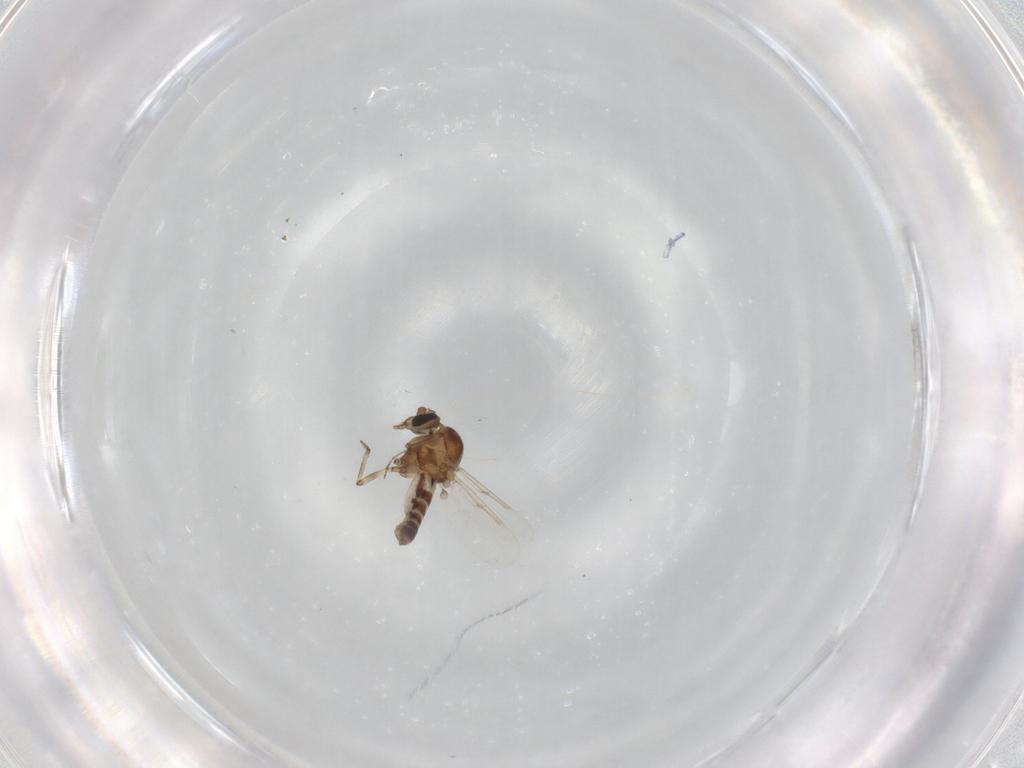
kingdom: Animalia
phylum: Arthropoda
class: Insecta
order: Diptera
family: Ceratopogonidae
